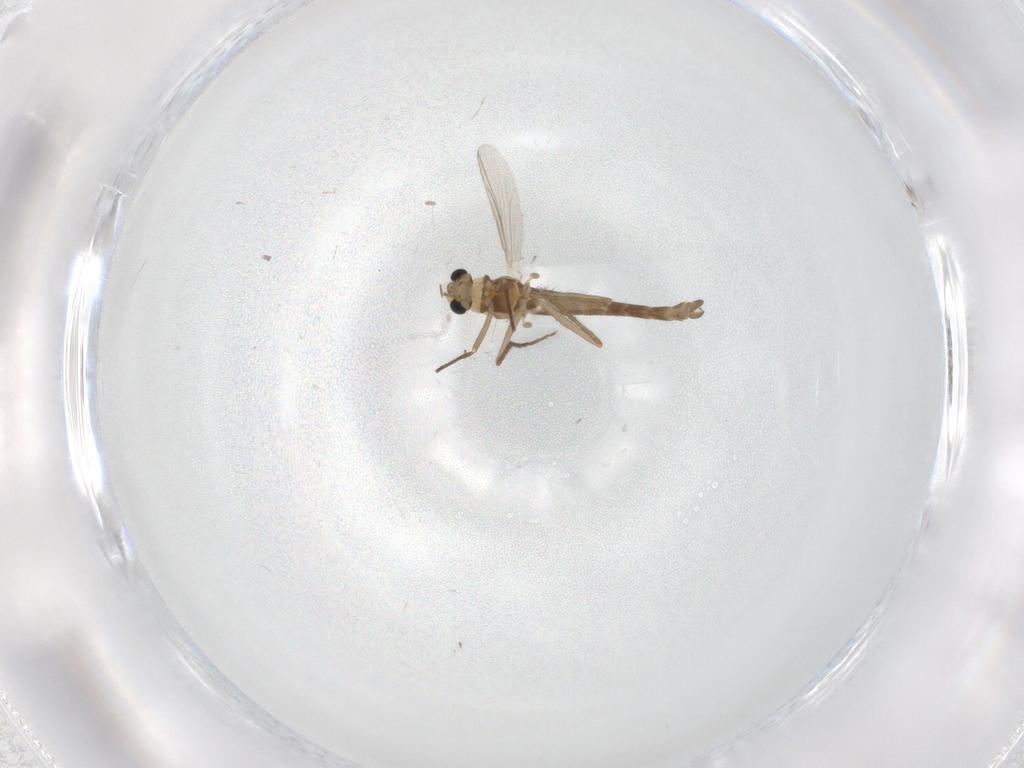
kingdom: Animalia
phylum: Arthropoda
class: Insecta
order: Diptera
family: Chironomidae
